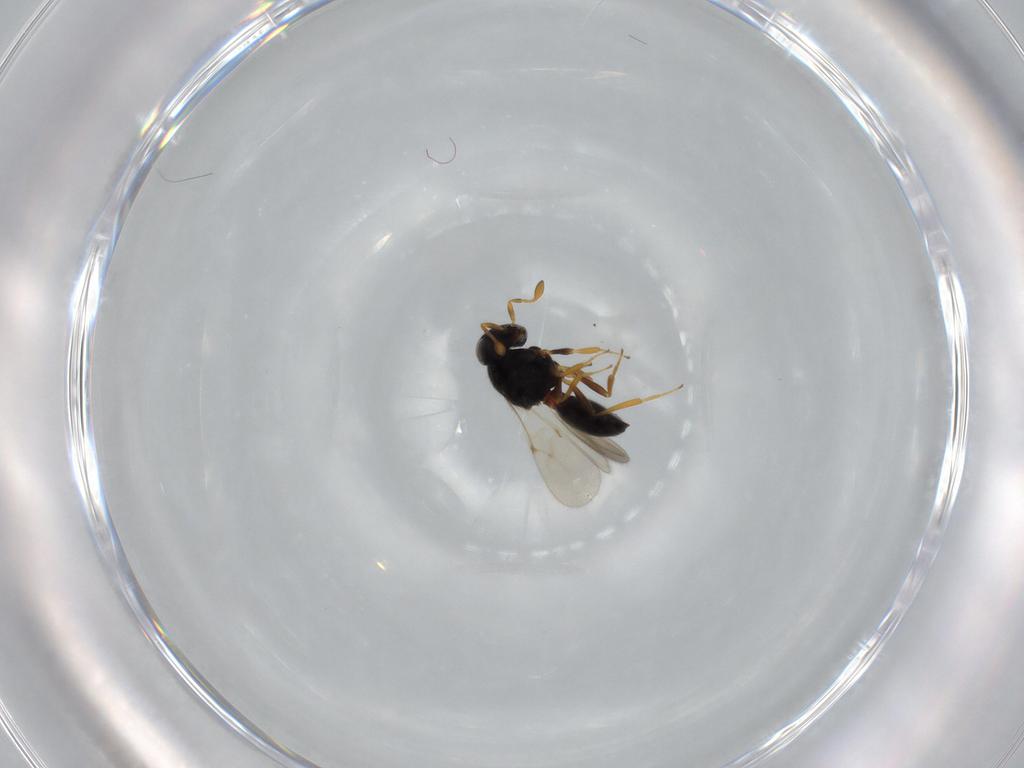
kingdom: Animalia
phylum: Arthropoda
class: Insecta
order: Hymenoptera
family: Scelionidae
